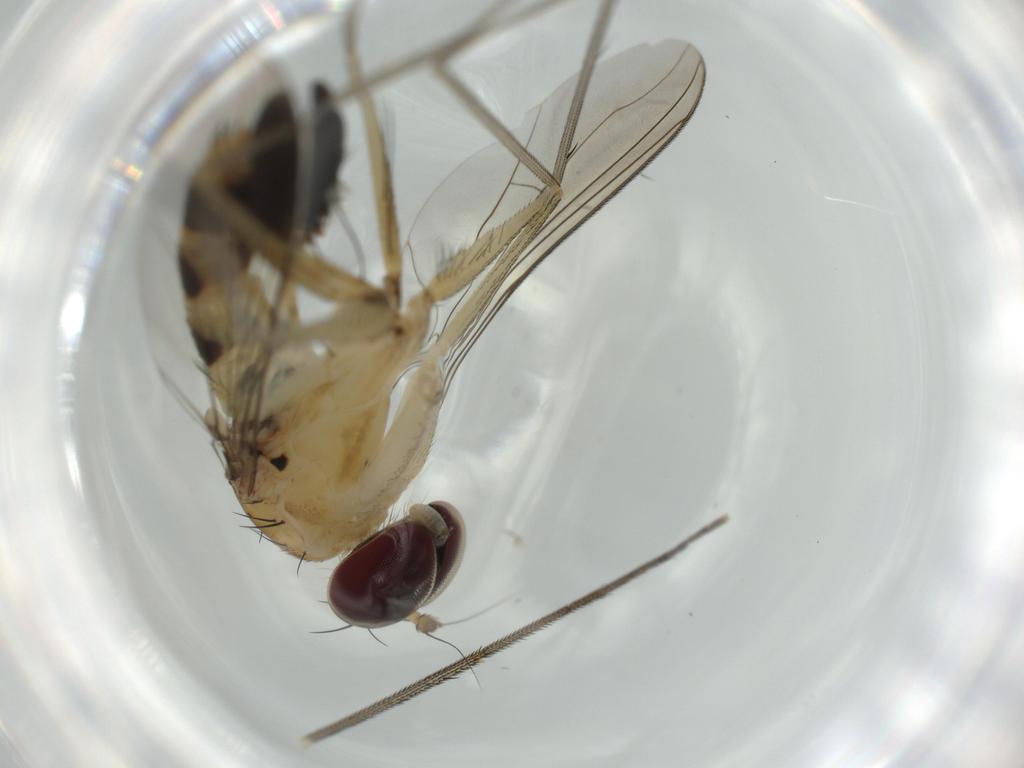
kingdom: Animalia
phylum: Arthropoda
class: Insecta
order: Diptera
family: Dolichopodidae
